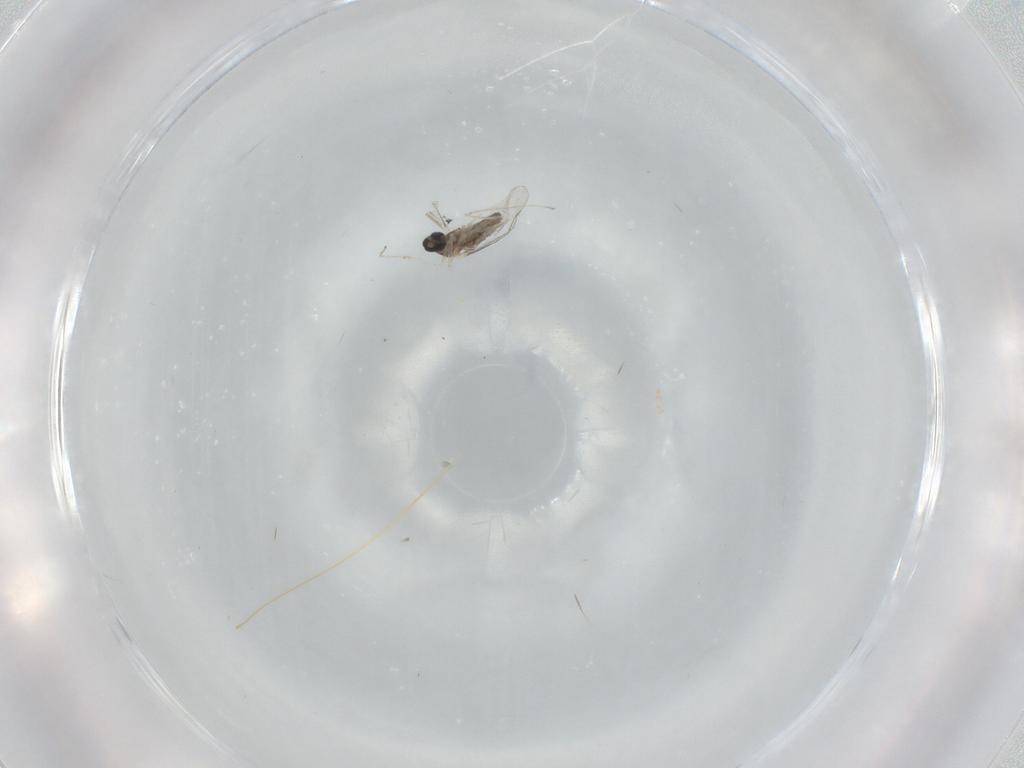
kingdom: Animalia
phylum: Arthropoda
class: Insecta
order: Diptera
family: Cecidomyiidae
